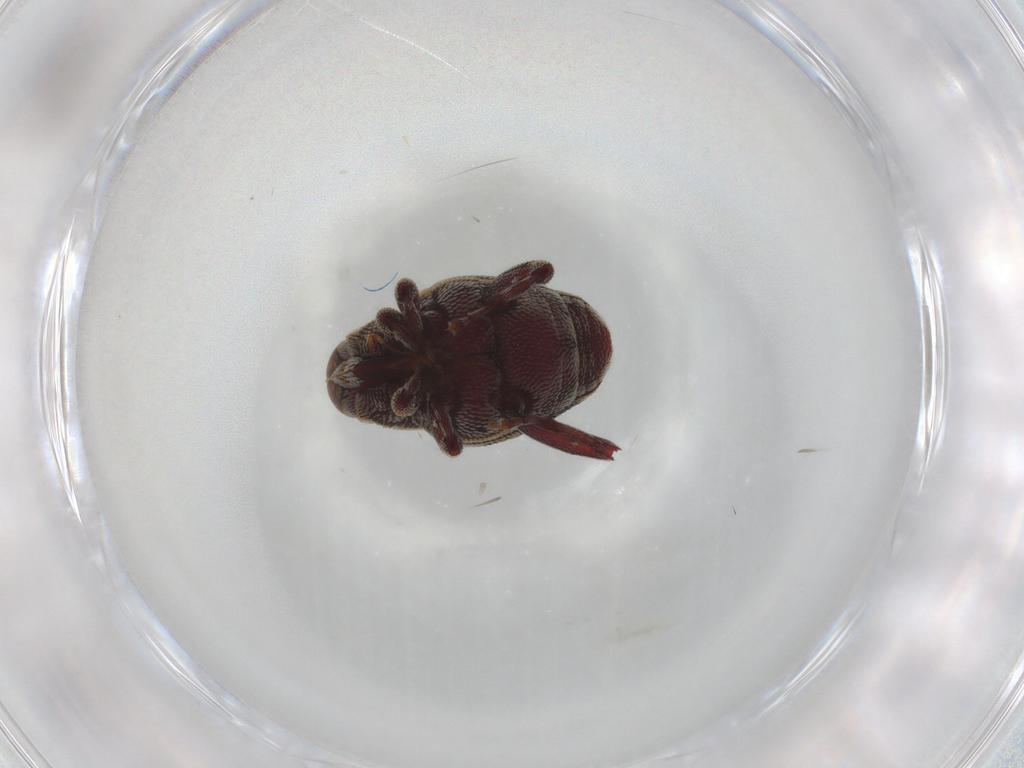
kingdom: Animalia
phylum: Arthropoda
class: Insecta
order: Coleoptera
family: Curculionidae
